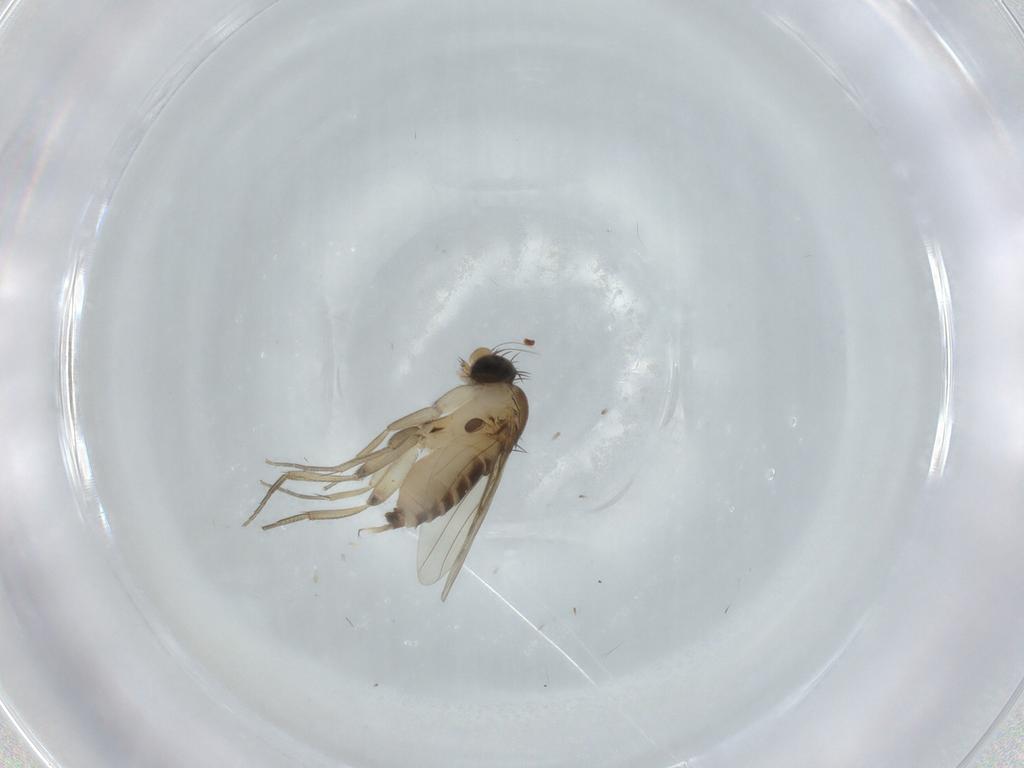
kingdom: Animalia
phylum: Arthropoda
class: Insecta
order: Diptera
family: Phoridae
